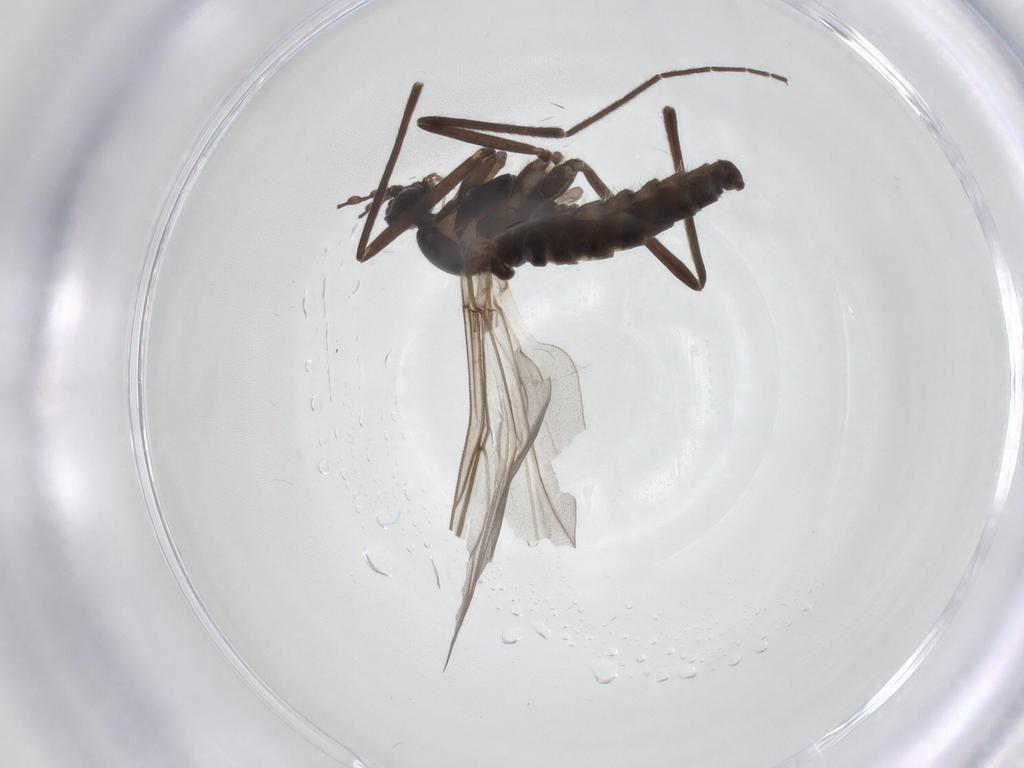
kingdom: Animalia
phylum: Arthropoda
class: Insecta
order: Diptera
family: Cecidomyiidae
